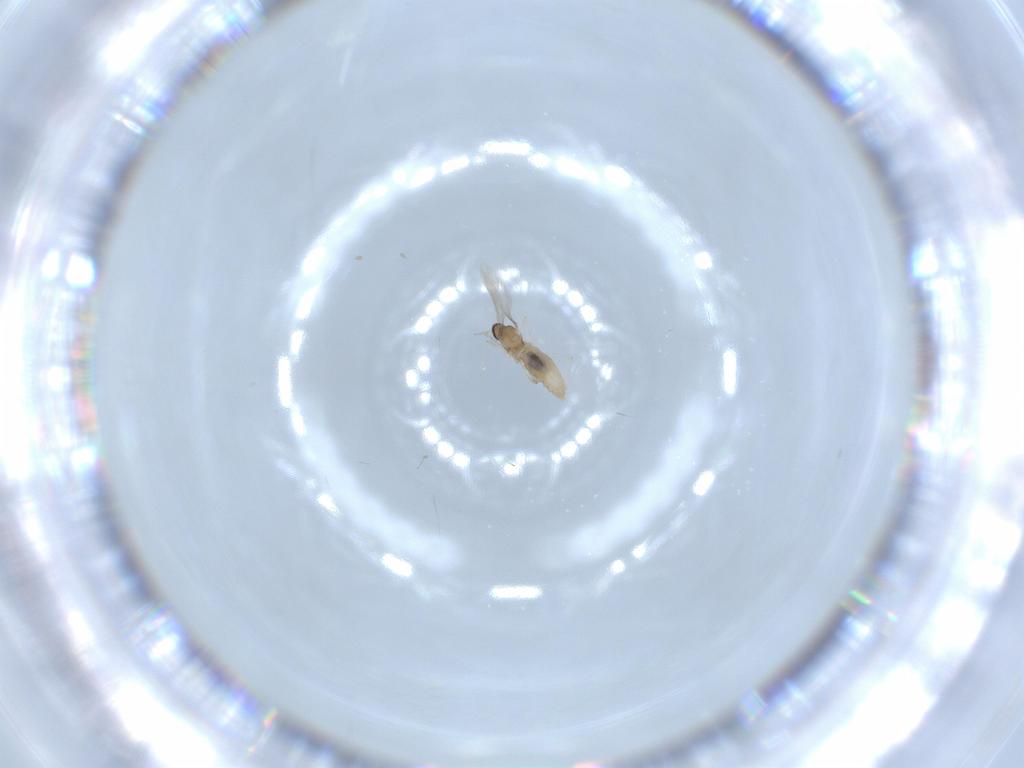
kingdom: Animalia
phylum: Arthropoda
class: Insecta
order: Diptera
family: Cecidomyiidae
